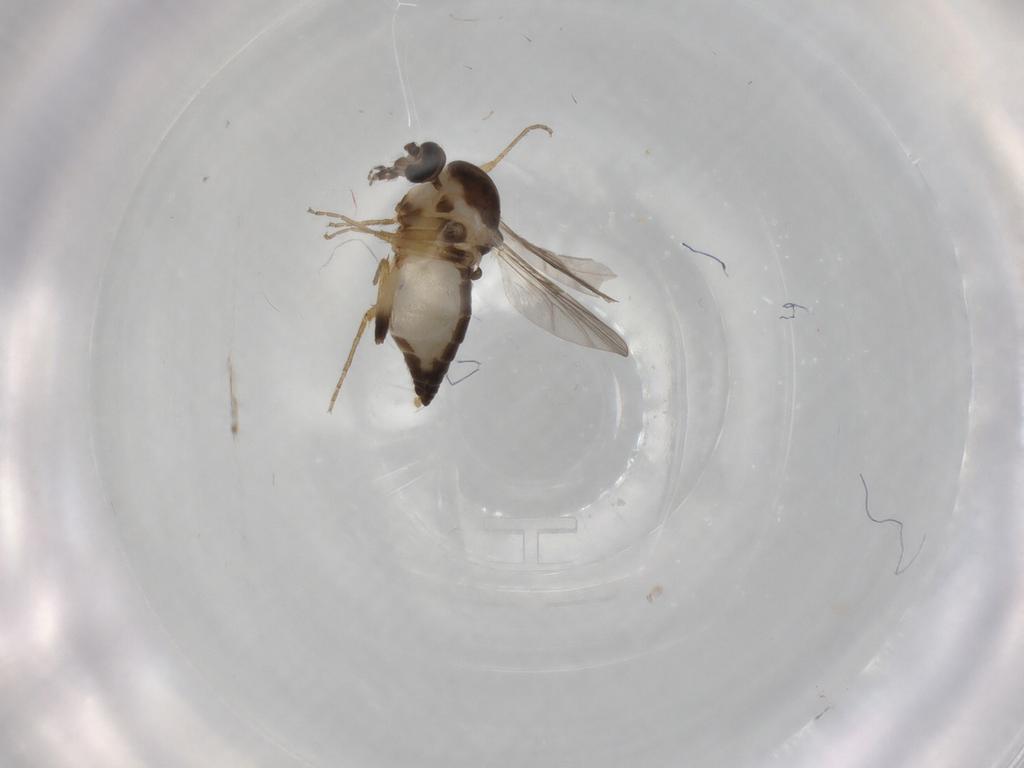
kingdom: Animalia
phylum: Arthropoda
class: Insecta
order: Diptera
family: Ceratopogonidae
